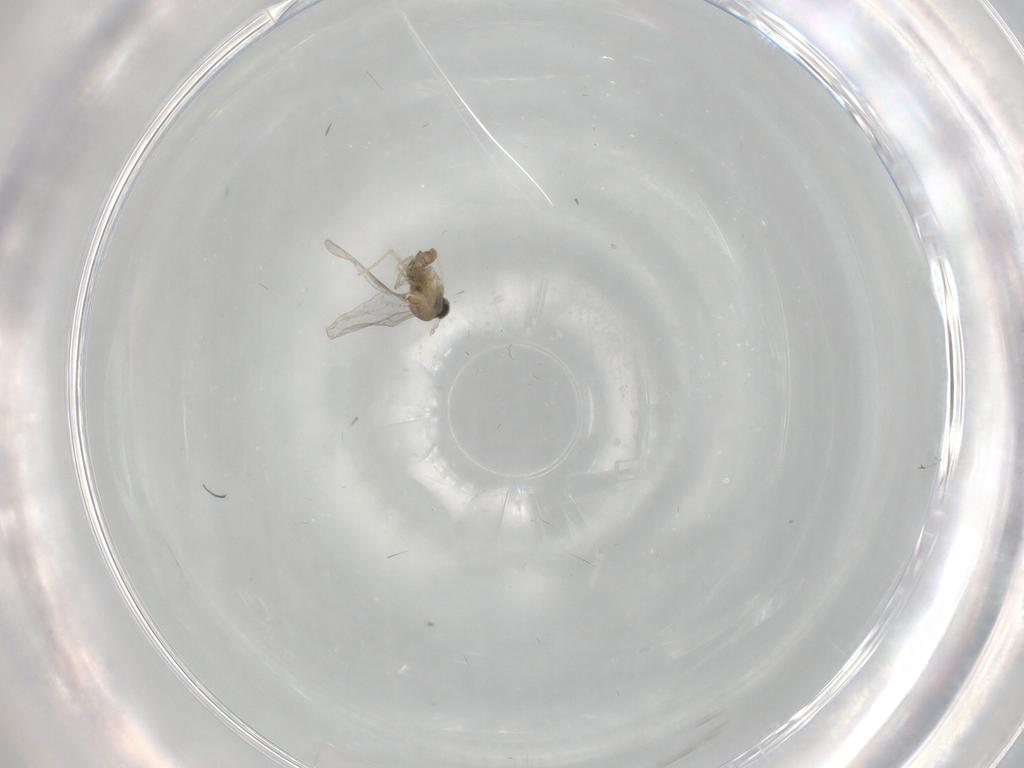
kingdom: Animalia
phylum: Arthropoda
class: Insecta
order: Diptera
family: Cecidomyiidae
